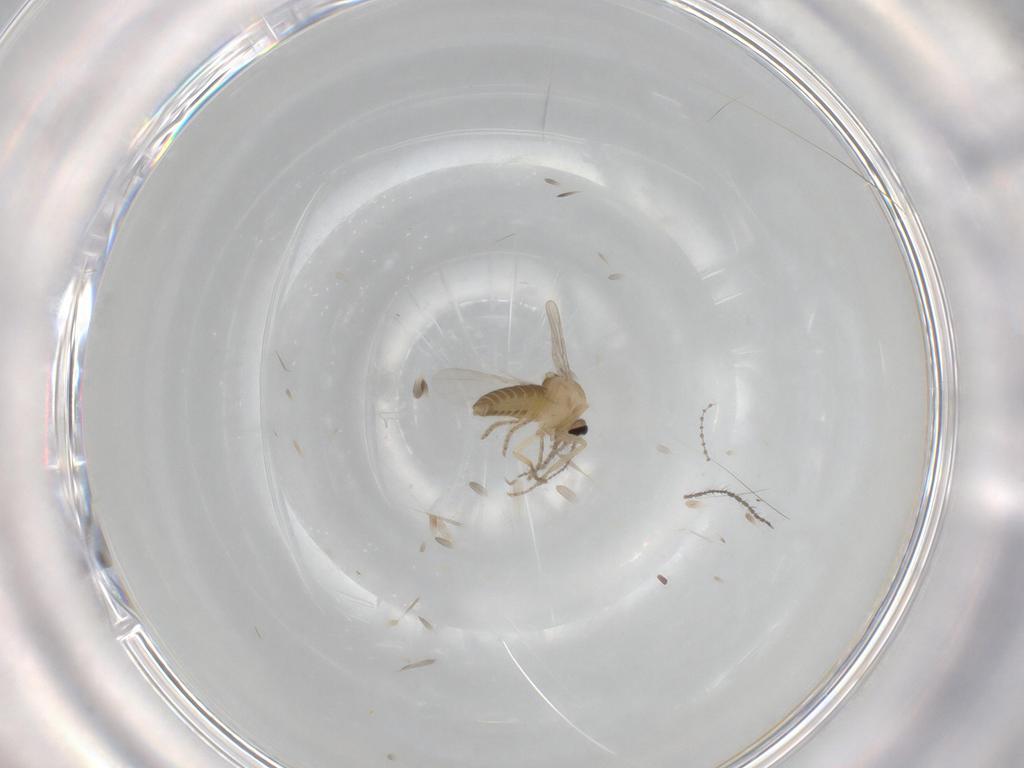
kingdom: Animalia
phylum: Arthropoda
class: Insecta
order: Diptera
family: Ceratopogonidae
